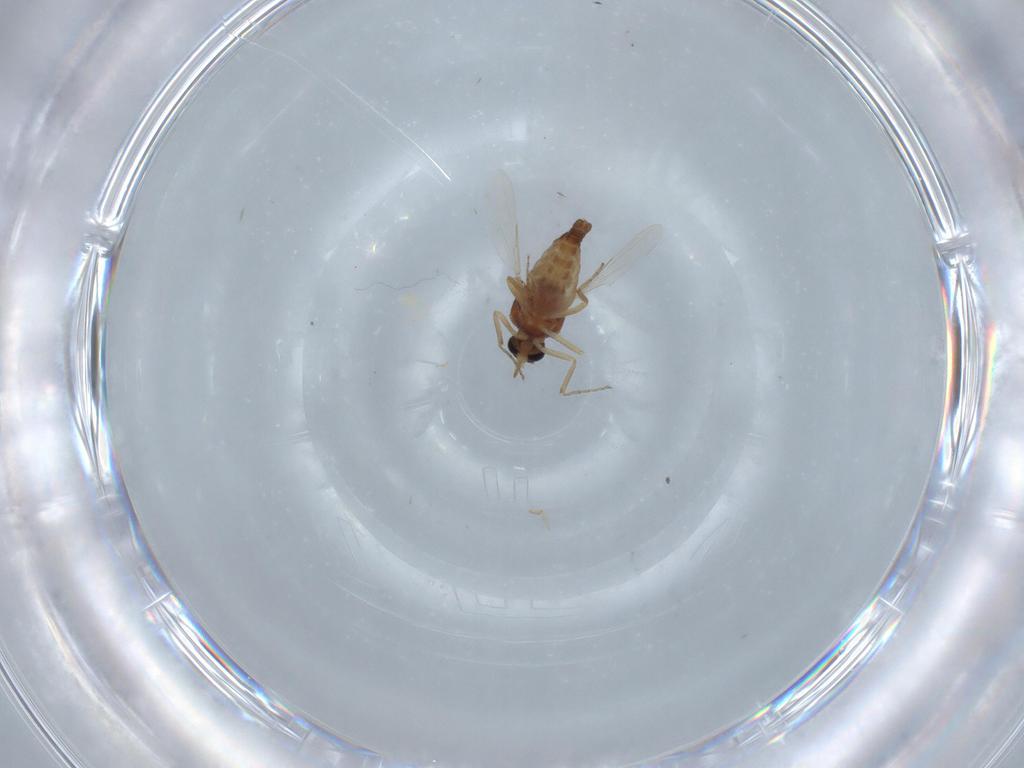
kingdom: Animalia
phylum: Arthropoda
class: Insecta
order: Diptera
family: Ceratopogonidae
